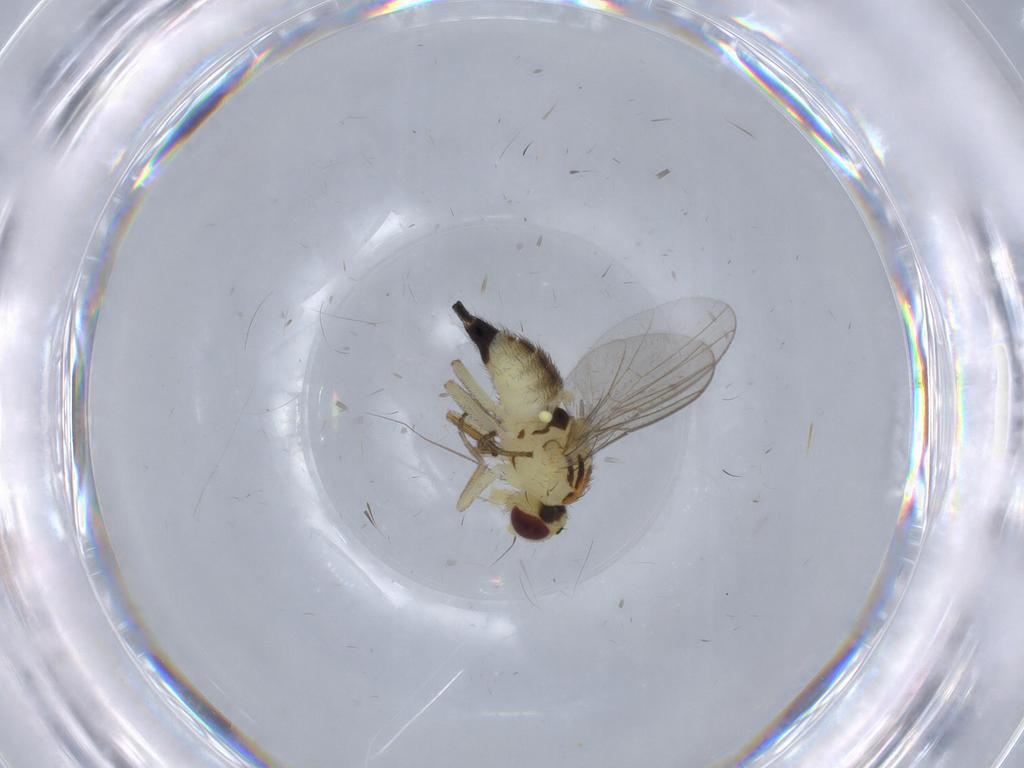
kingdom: Animalia
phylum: Arthropoda
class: Insecta
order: Diptera
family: Agromyzidae
